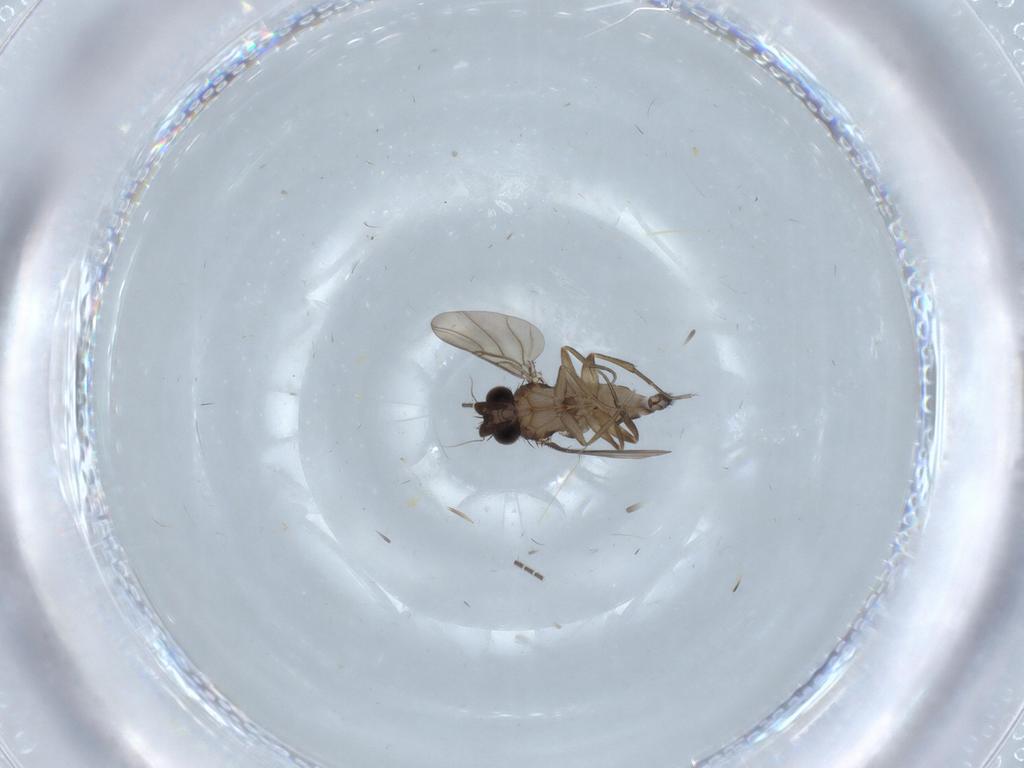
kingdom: Animalia
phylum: Arthropoda
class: Insecta
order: Diptera
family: Phoridae
